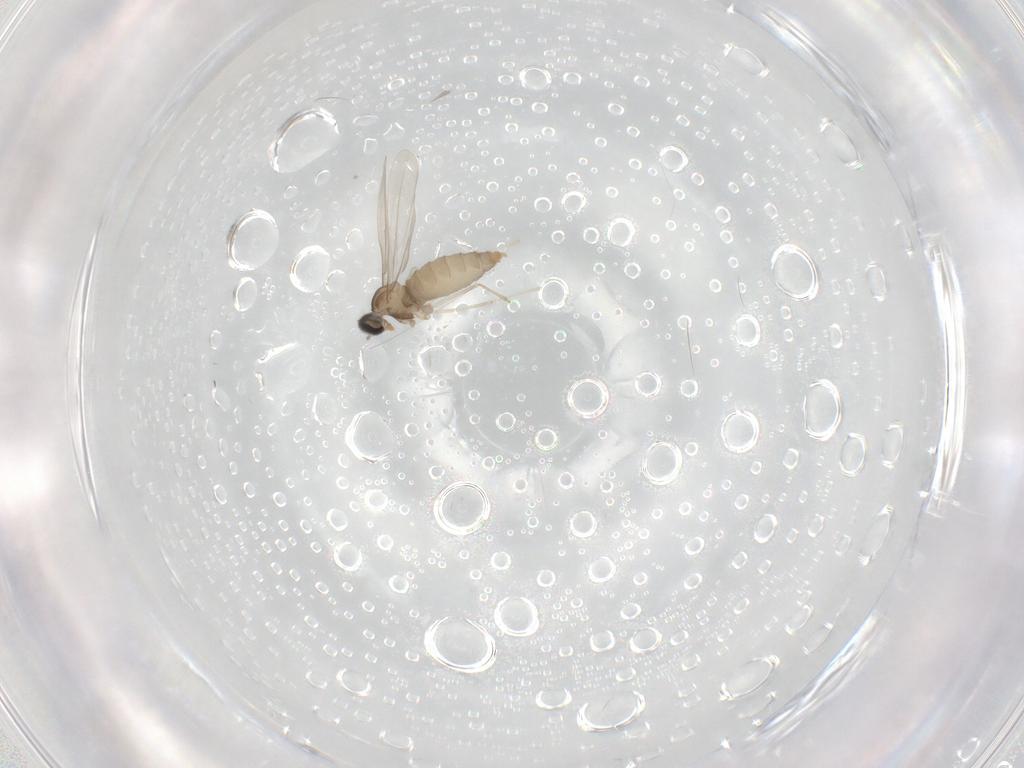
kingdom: Animalia
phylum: Arthropoda
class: Insecta
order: Diptera
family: Cecidomyiidae
